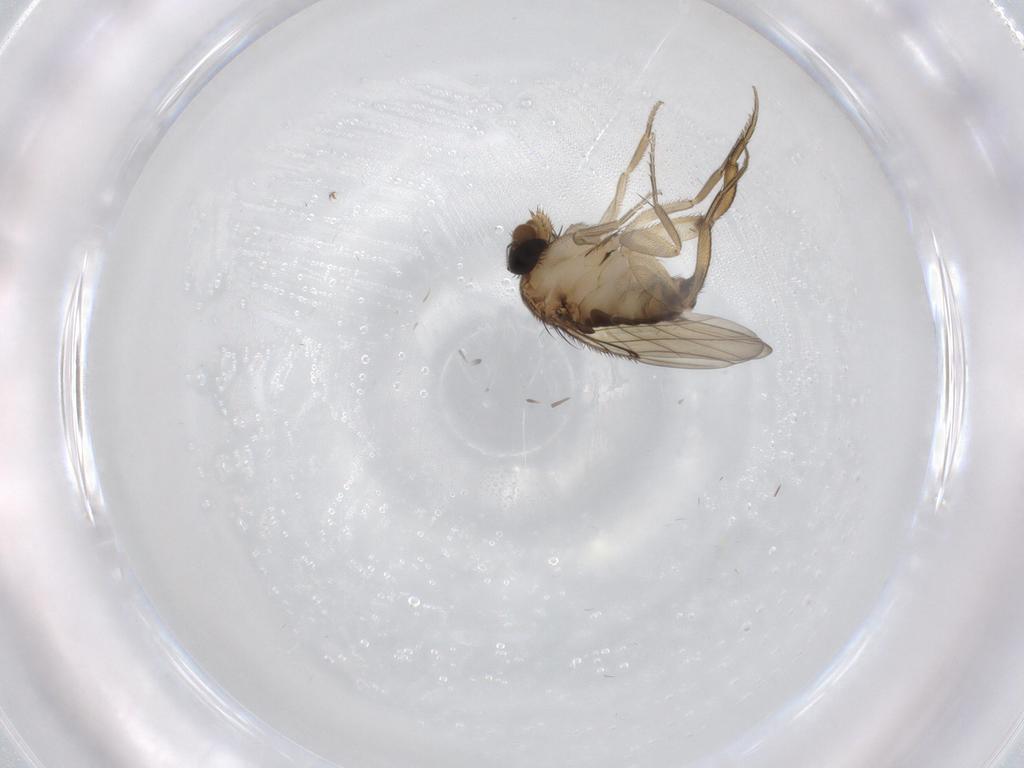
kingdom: Animalia
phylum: Arthropoda
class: Insecta
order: Diptera
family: Phoridae
